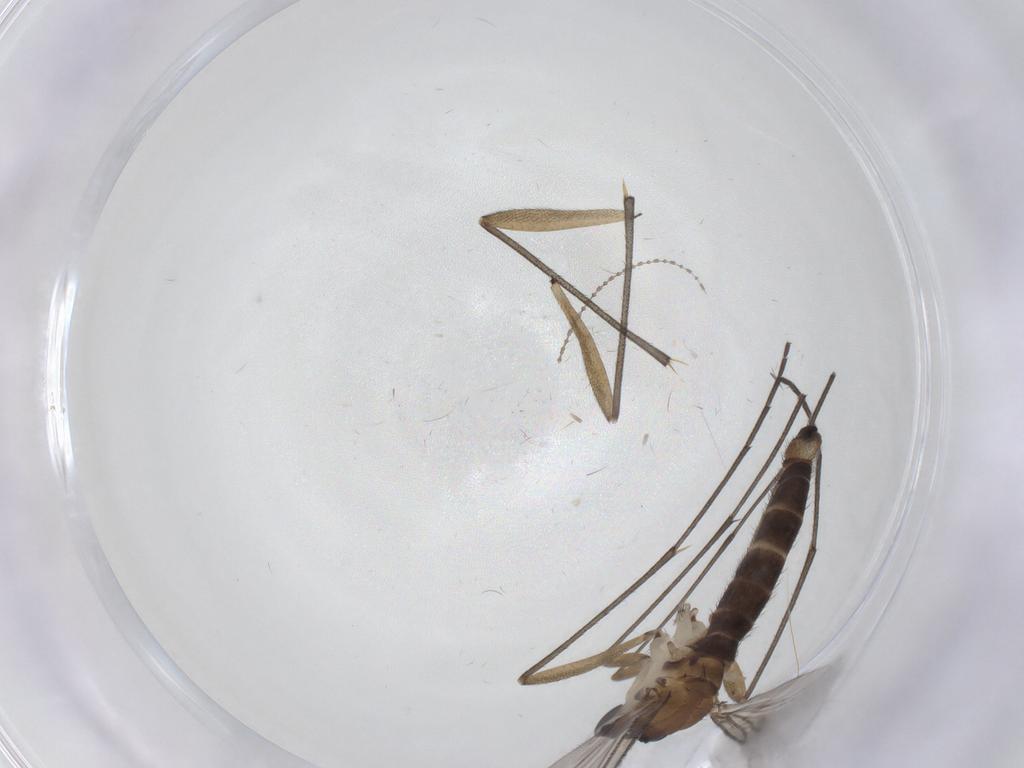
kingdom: Animalia
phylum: Arthropoda
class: Insecta
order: Diptera
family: Sciaridae
